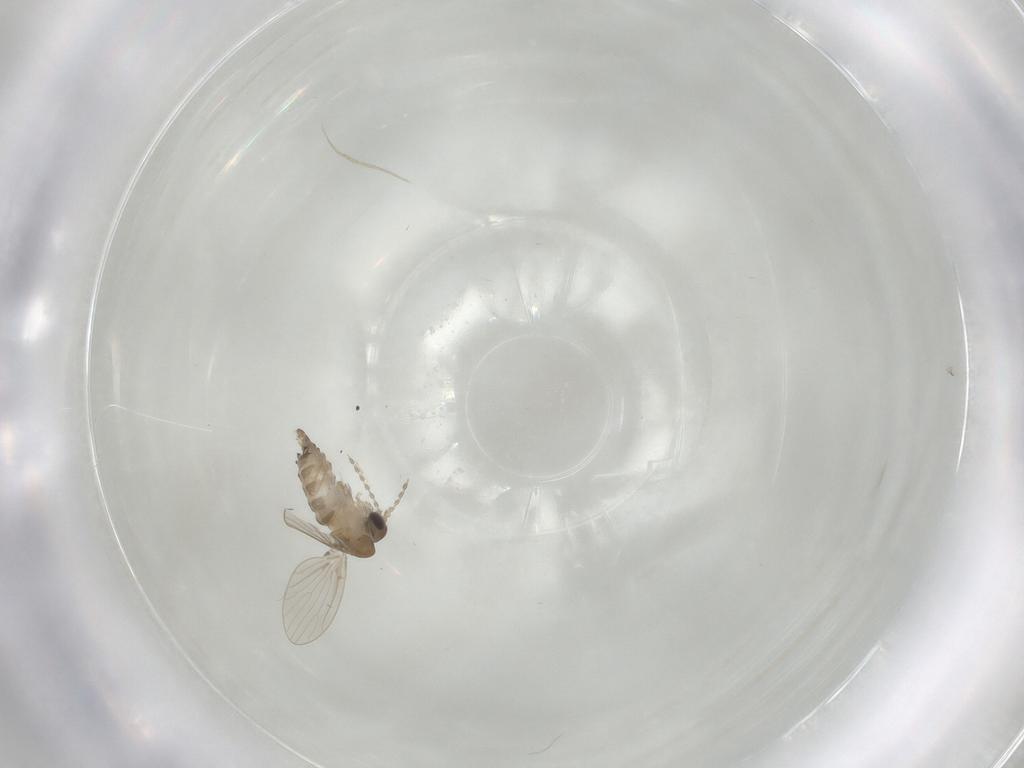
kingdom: Animalia
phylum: Arthropoda
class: Insecta
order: Diptera
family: Psychodidae
